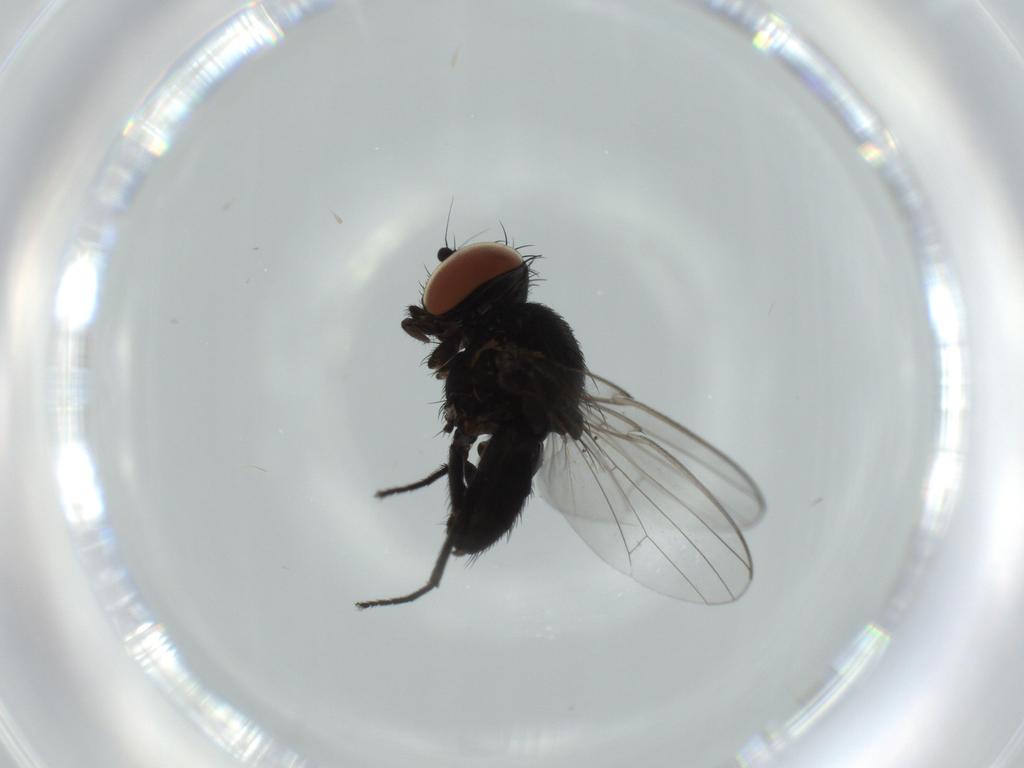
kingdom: Animalia
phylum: Arthropoda
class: Insecta
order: Diptera
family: Milichiidae
